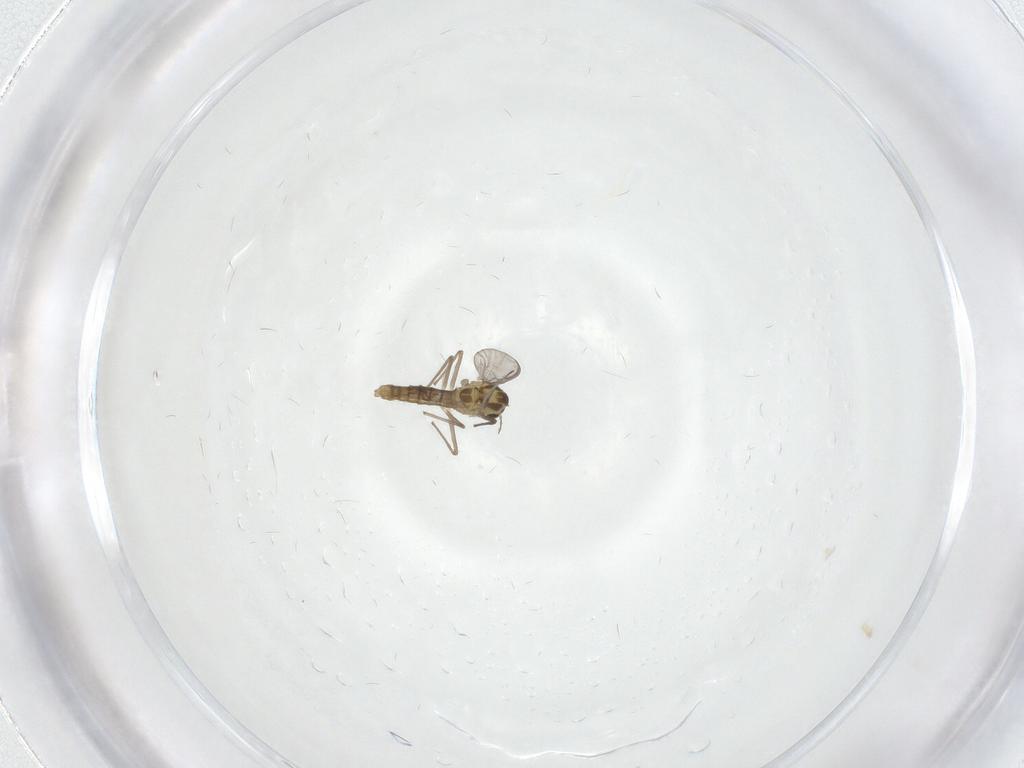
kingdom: Animalia
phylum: Arthropoda
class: Insecta
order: Diptera
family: Chironomidae
